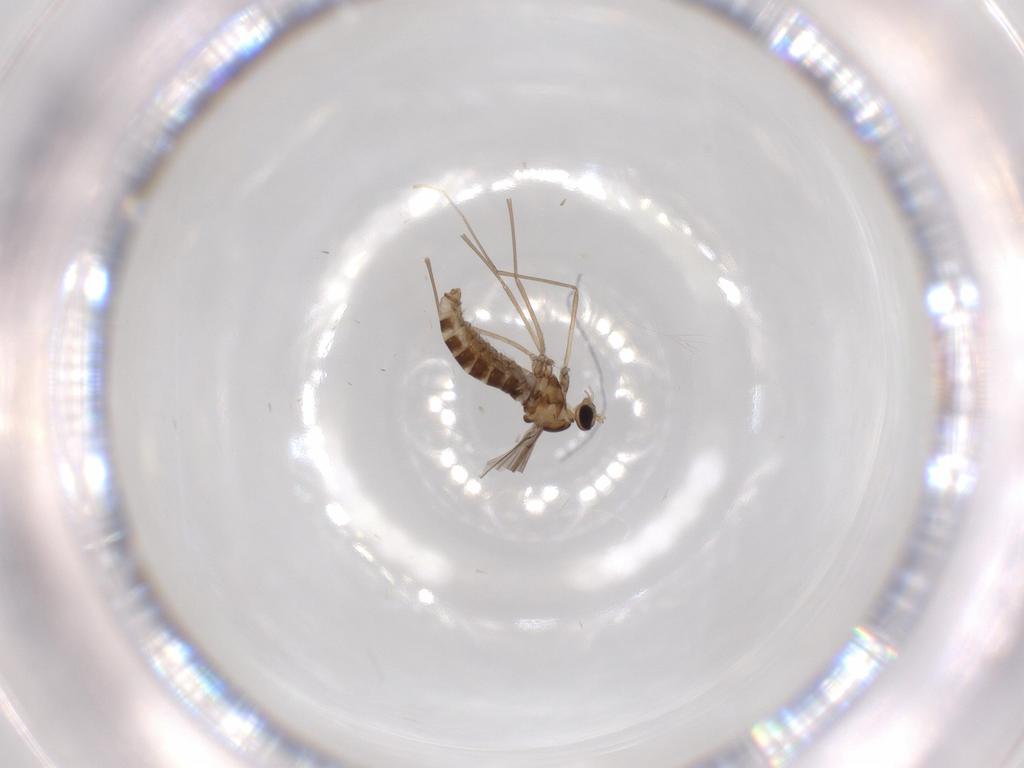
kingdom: Animalia
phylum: Arthropoda
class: Insecta
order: Diptera
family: Cecidomyiidae
